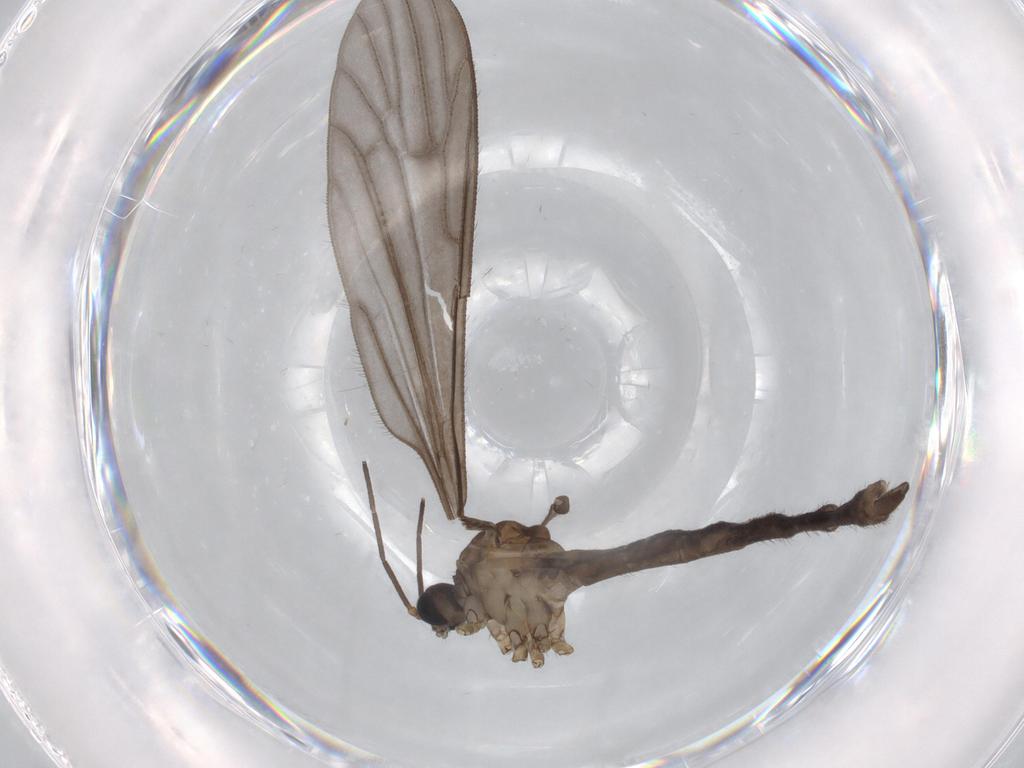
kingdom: Animalia
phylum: Arthropoda
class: Insecta
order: Diptera
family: Limoniidae
